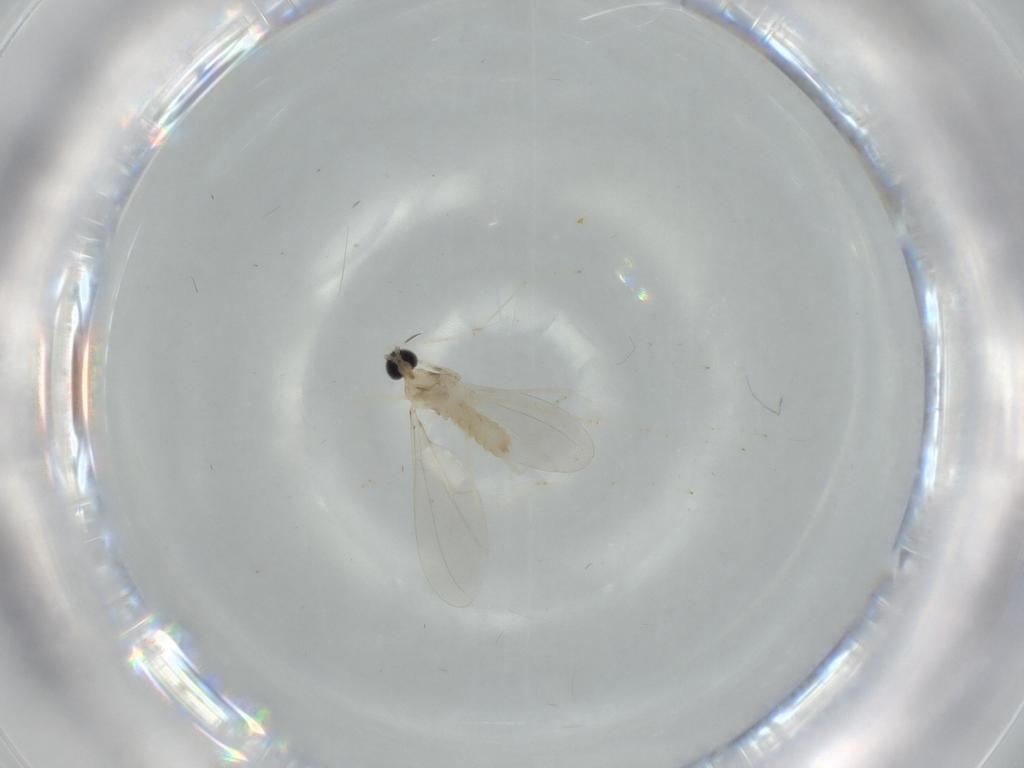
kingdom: Animalia
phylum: Arthropoda
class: Insecta
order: Diptera
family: Cecidomyiidae
